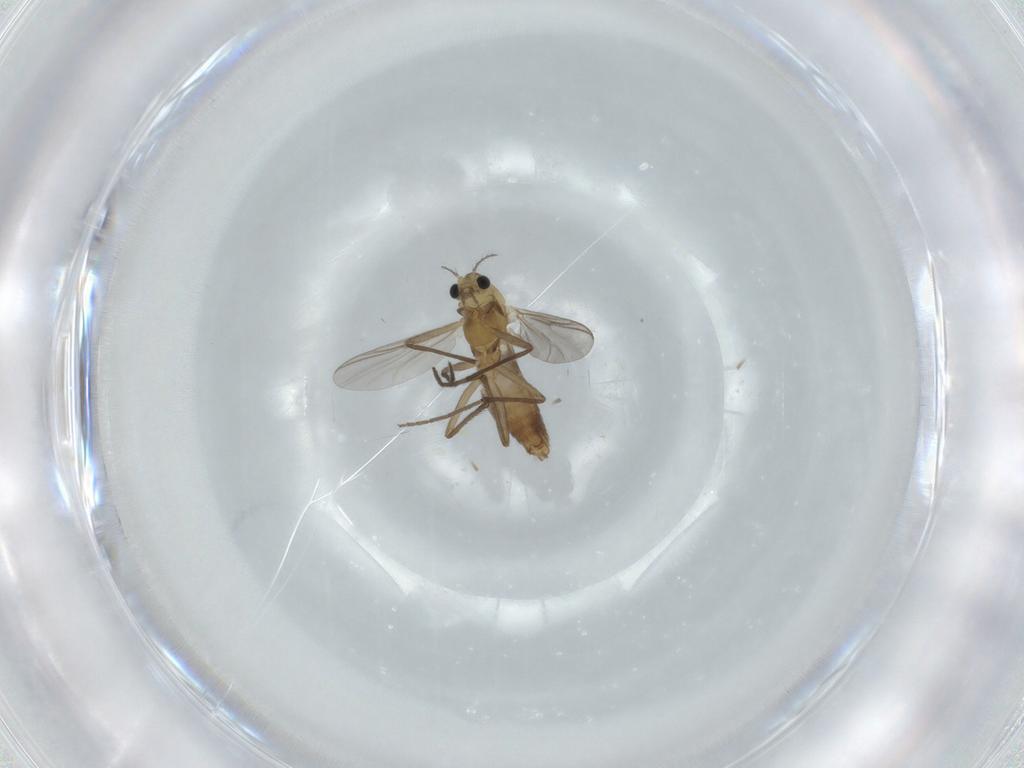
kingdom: Animalia
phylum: Arthropoda
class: Insecta
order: Diptera
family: Chironomidae
